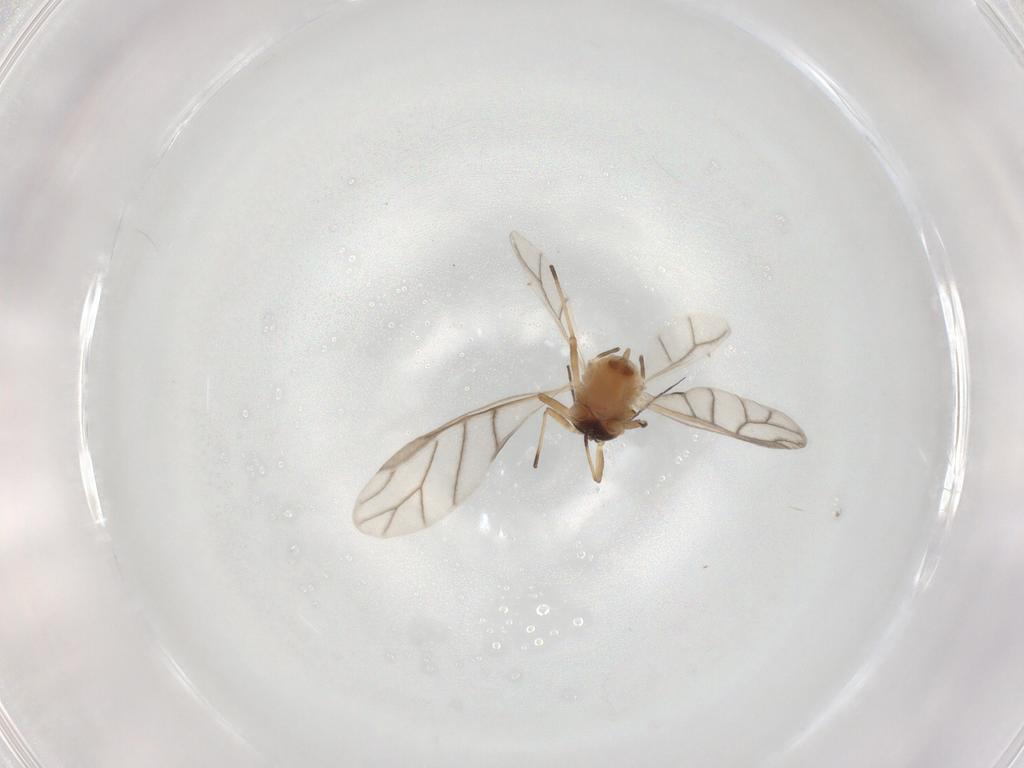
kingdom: Animalia
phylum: Arthropoda
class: Insecta
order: Hemiptera
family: Aphididae
